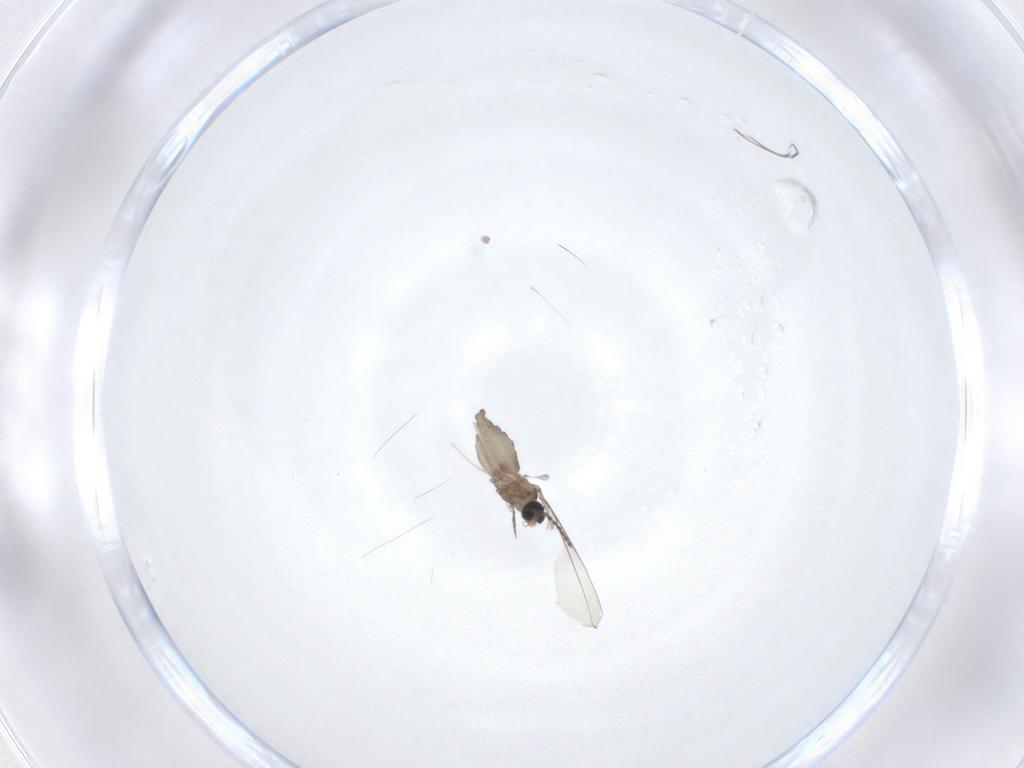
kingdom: Animalia
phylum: Arthropoda
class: Insecta
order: Diptera
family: Cecidomyiidae
